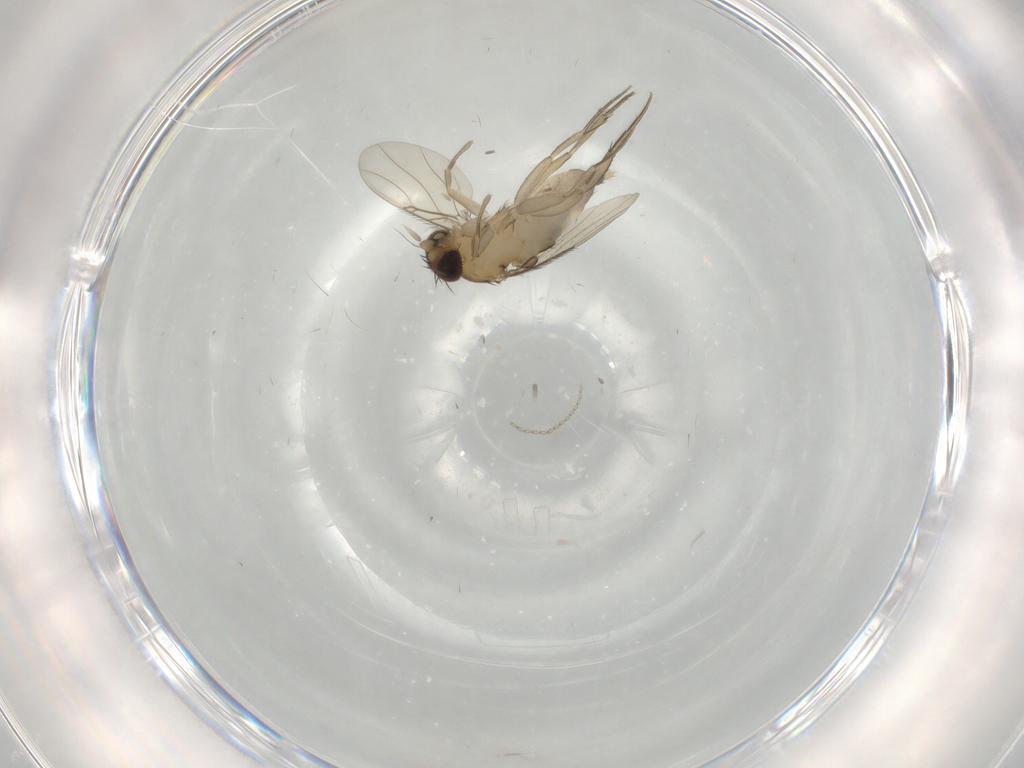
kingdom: Animalia
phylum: Arthropoda
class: Insecta
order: Diptera
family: Phoridae
